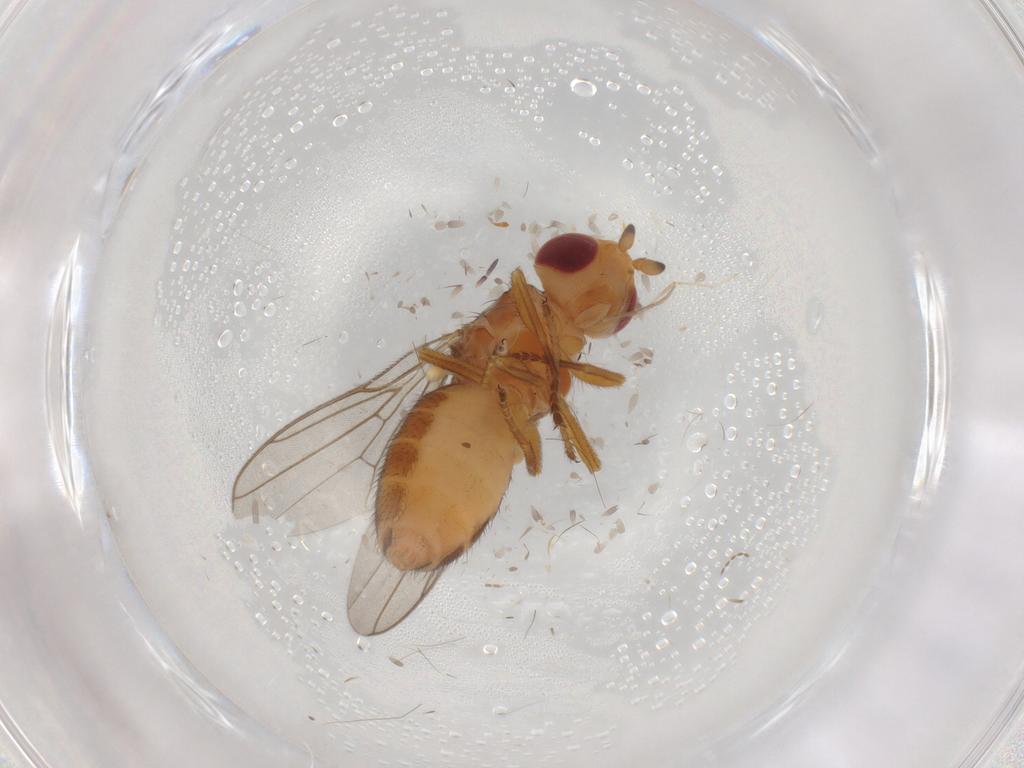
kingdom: Animalia
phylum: Arthropoda
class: Insecta
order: Diptera
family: Chloropidae
